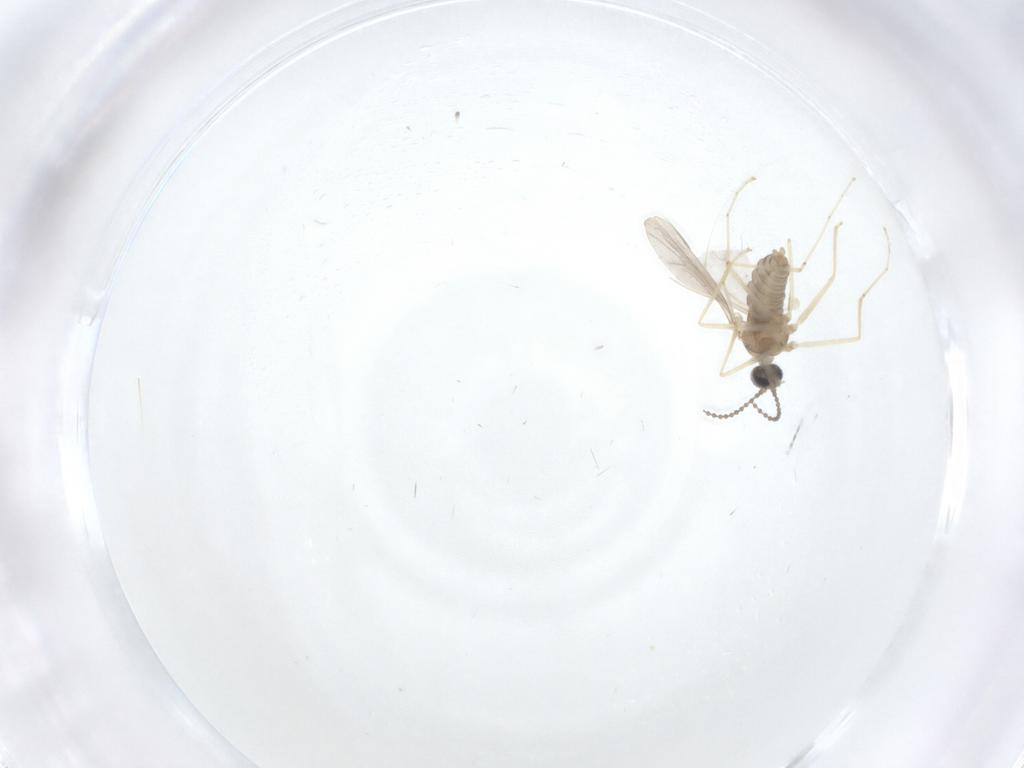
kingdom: Animalia
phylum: Arthropoda
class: Insecta
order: Diptera
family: Cecidomyiidae
